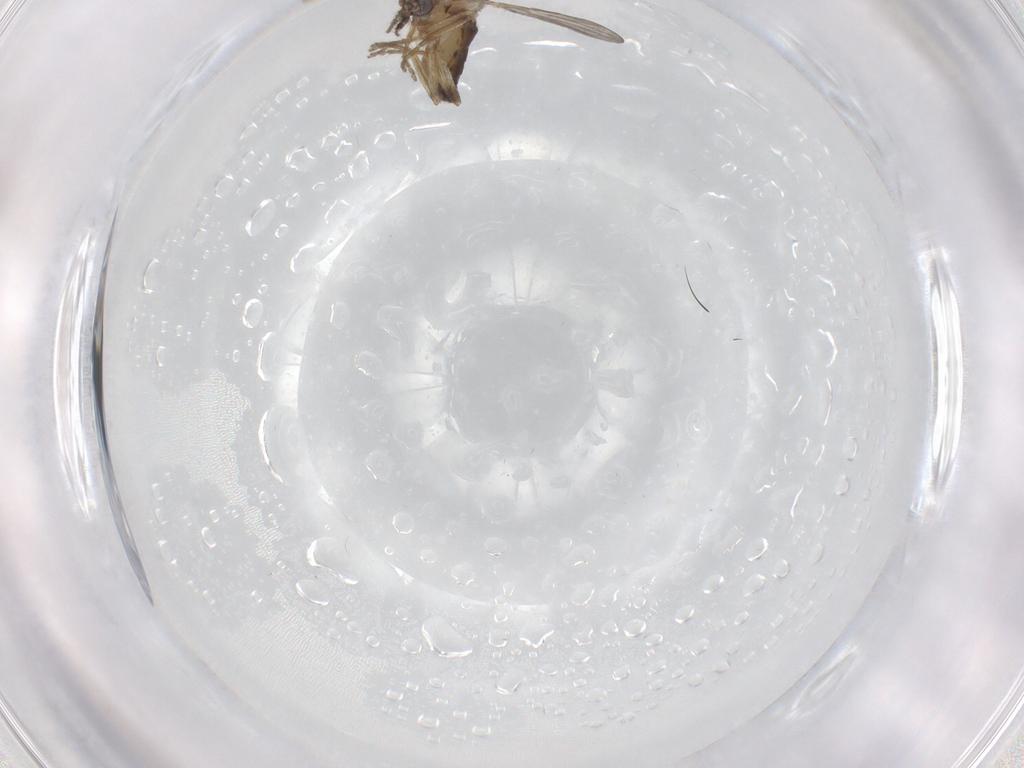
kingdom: Animalia
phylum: Arthropoda
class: Insecta
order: Diptera
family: Ceratopogonidae
